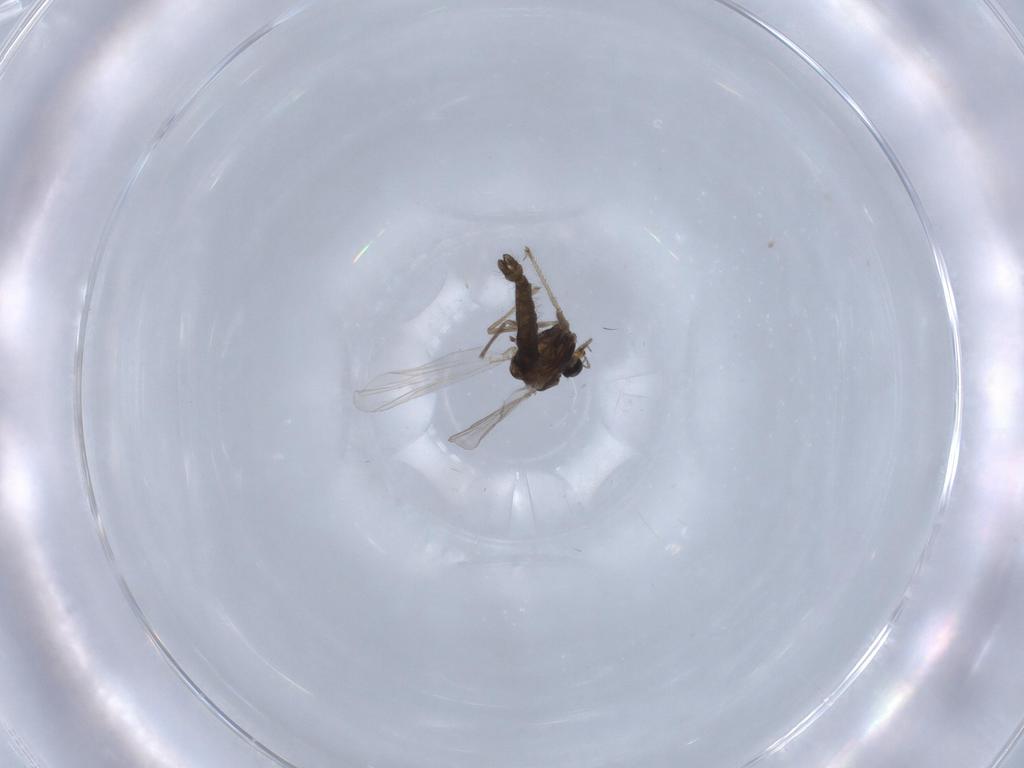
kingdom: Animalia
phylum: Arthropoda
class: Insecta
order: Diptera
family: Chironomidae
